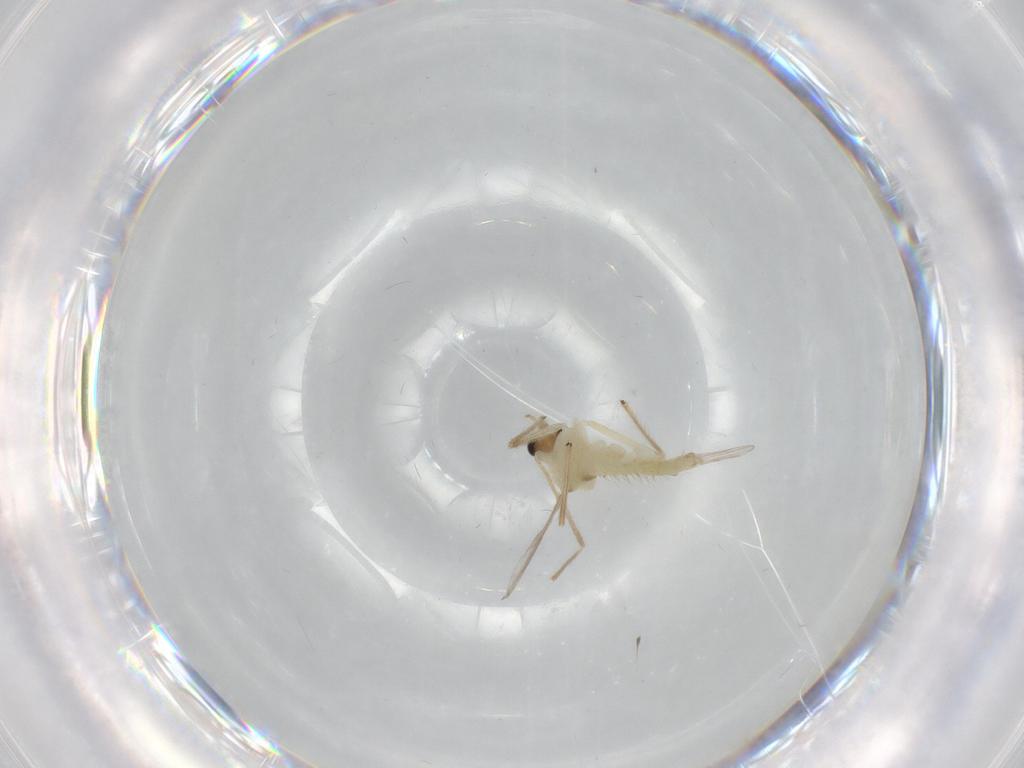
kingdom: Animalia
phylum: Arthropoda
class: Insecta
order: Diptera
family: Chironomidae
